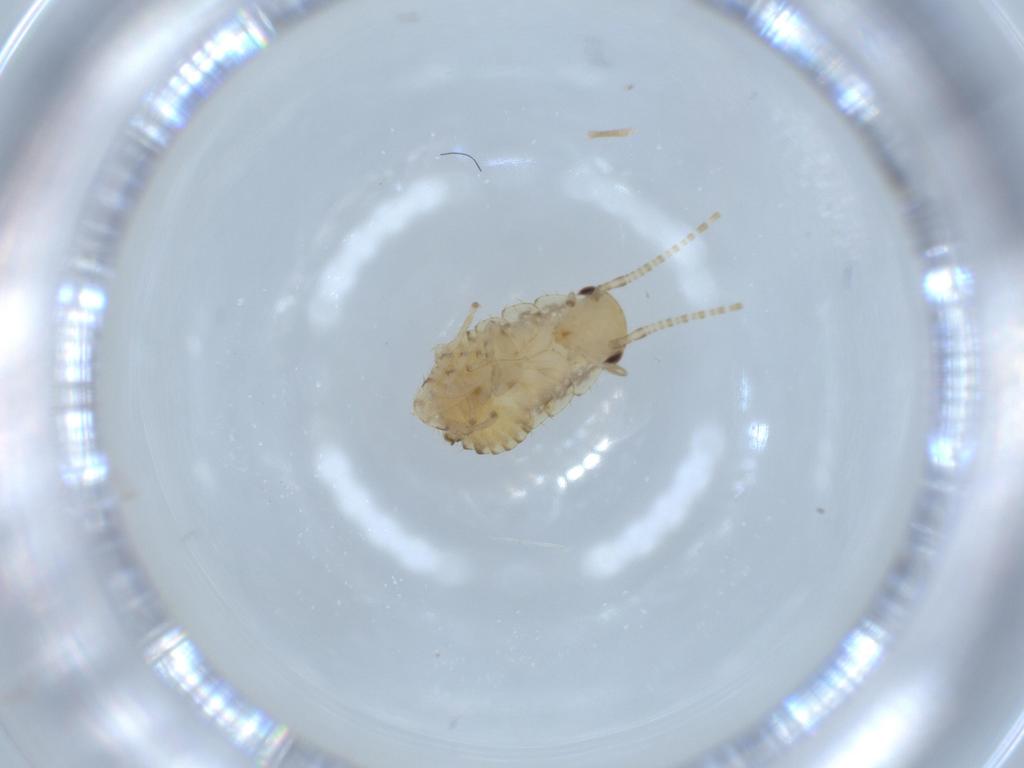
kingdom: Animalia
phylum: Arthropoda
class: Insecta
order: Blattodea
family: Ectobiidae
